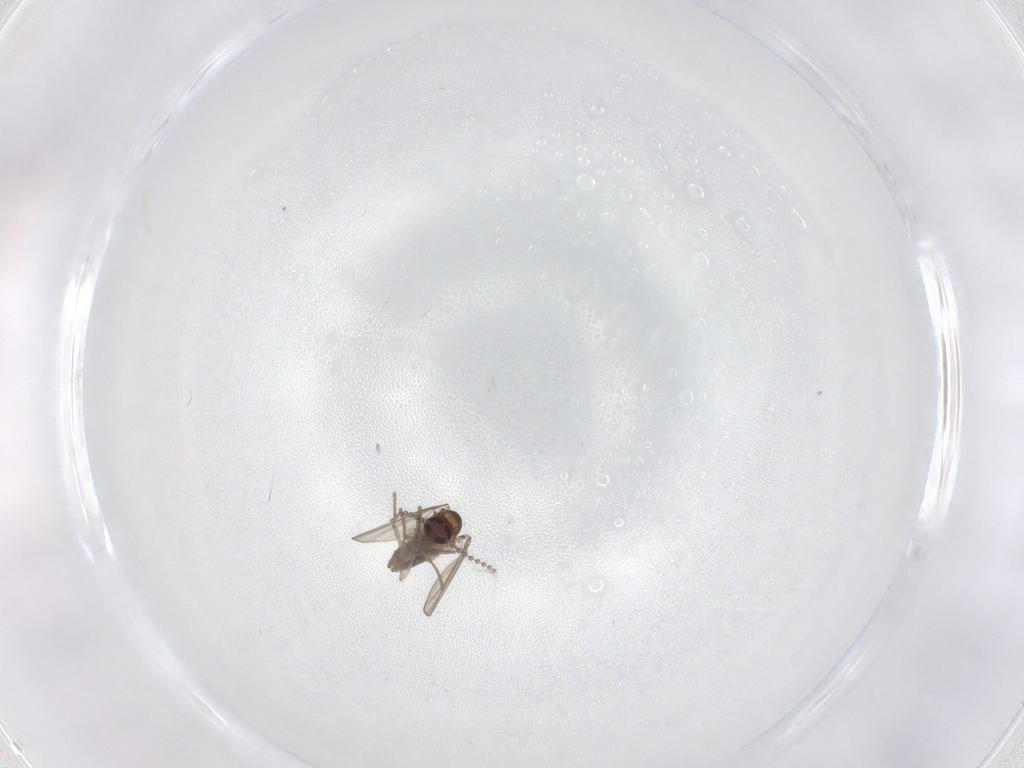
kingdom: Animalia
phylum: Arthropoda
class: Insecta
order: Diptera
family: Psychodidae
